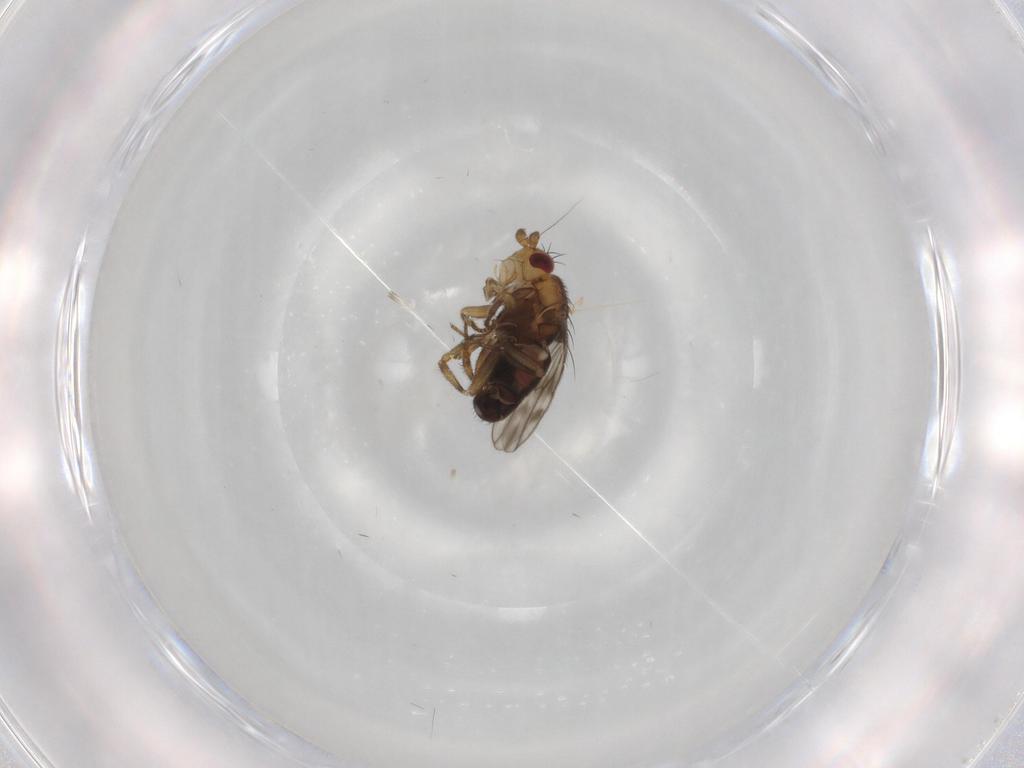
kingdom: Animalia
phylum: Arthropoda
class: Insecta
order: Diptera
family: Sphaeroceridae
